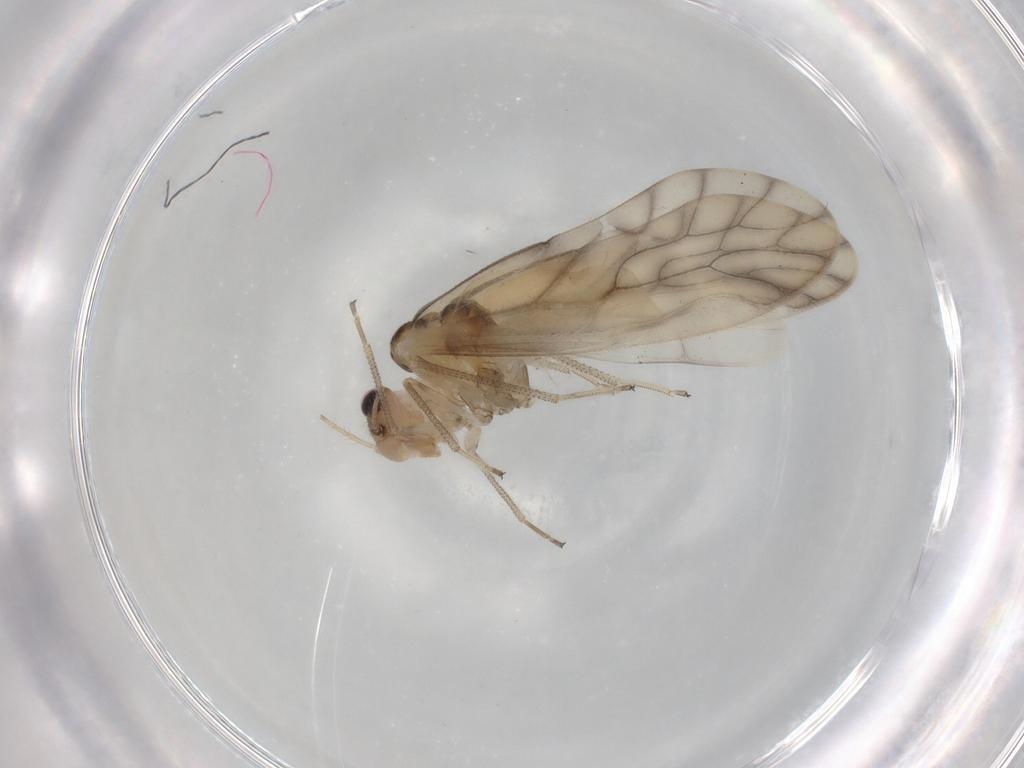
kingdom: Animalia
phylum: Arthropoda
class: Insecta
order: Psocodea
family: Caeciliusidae
